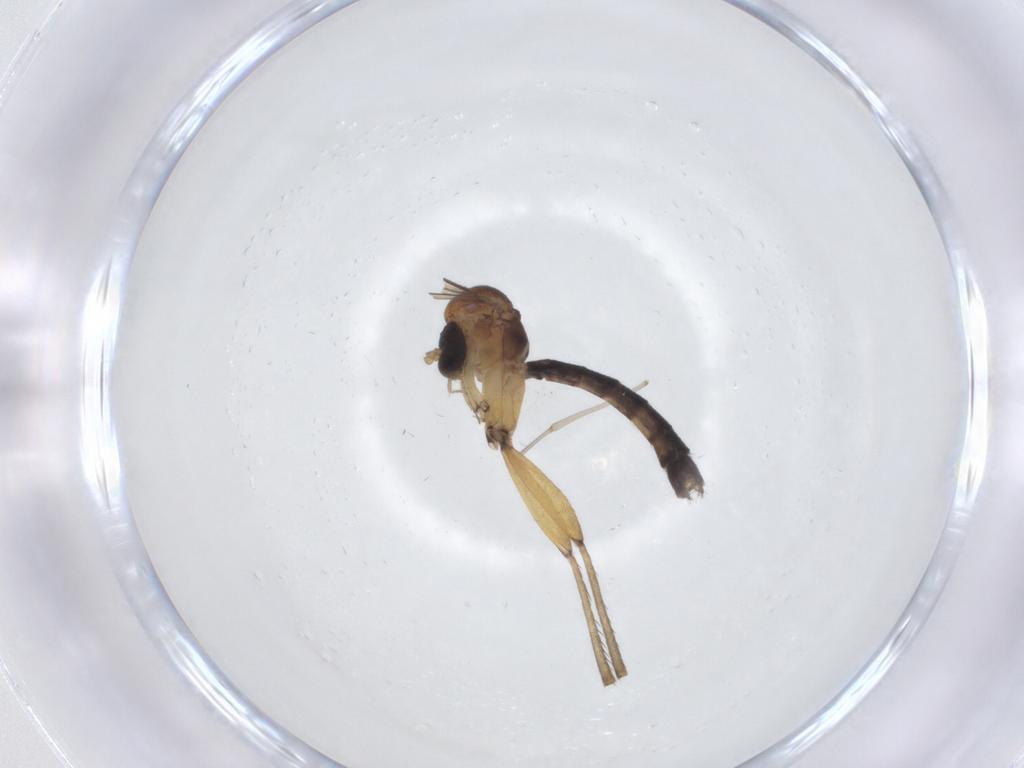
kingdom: Animalia
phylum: Arthropoda
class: Insecta
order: Diptera
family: Cecidomyiidae
